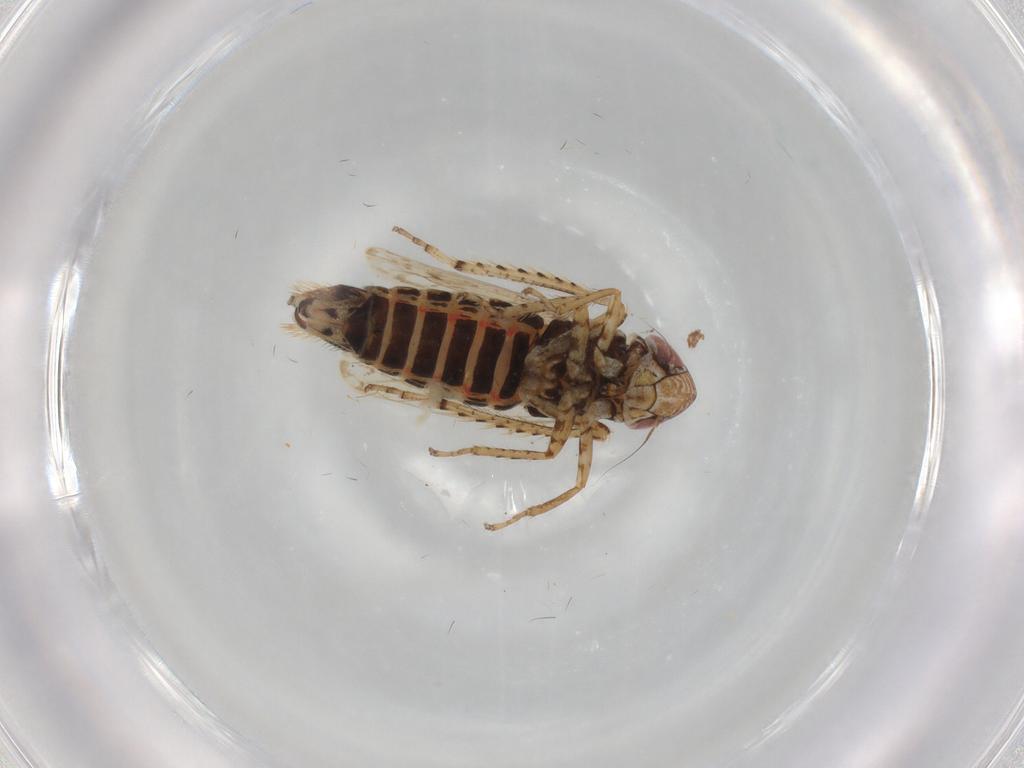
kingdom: Animalia
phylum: Arthropoda
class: Insecta
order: Hemiptera
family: Cicadellidae
